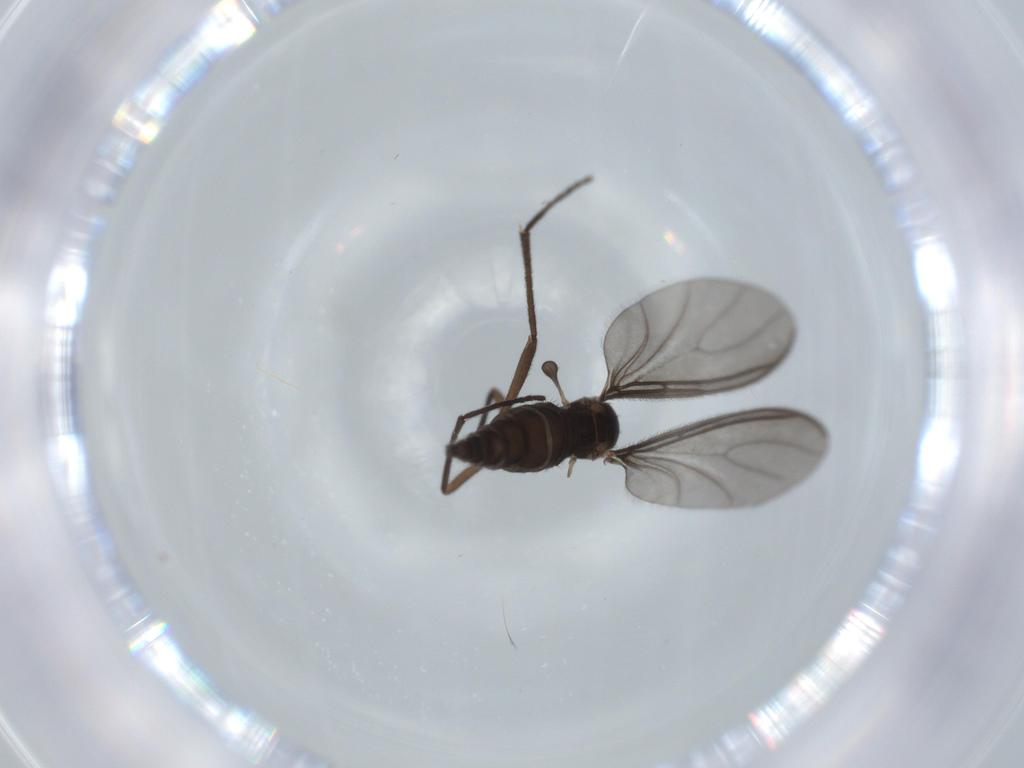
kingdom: Animalia
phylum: Arthropoda
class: Insecta
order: Diptera
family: Sciaridae
